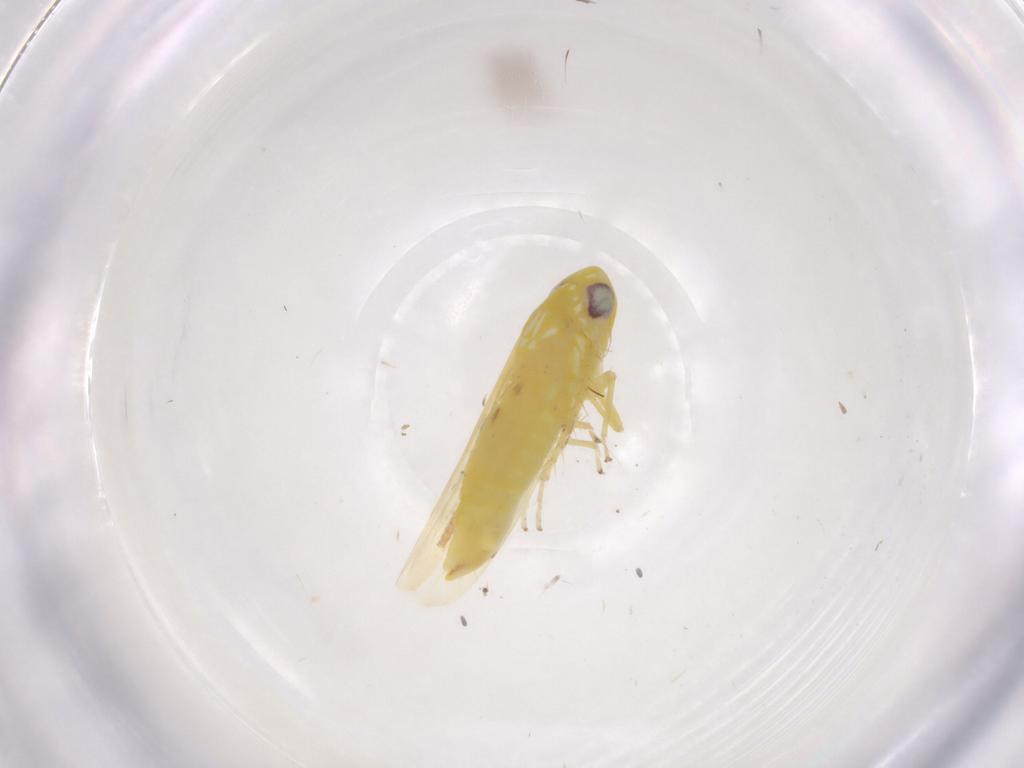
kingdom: Animalia
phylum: Arthropoda
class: Insecta
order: Hemiptera
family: Cicadellidae
